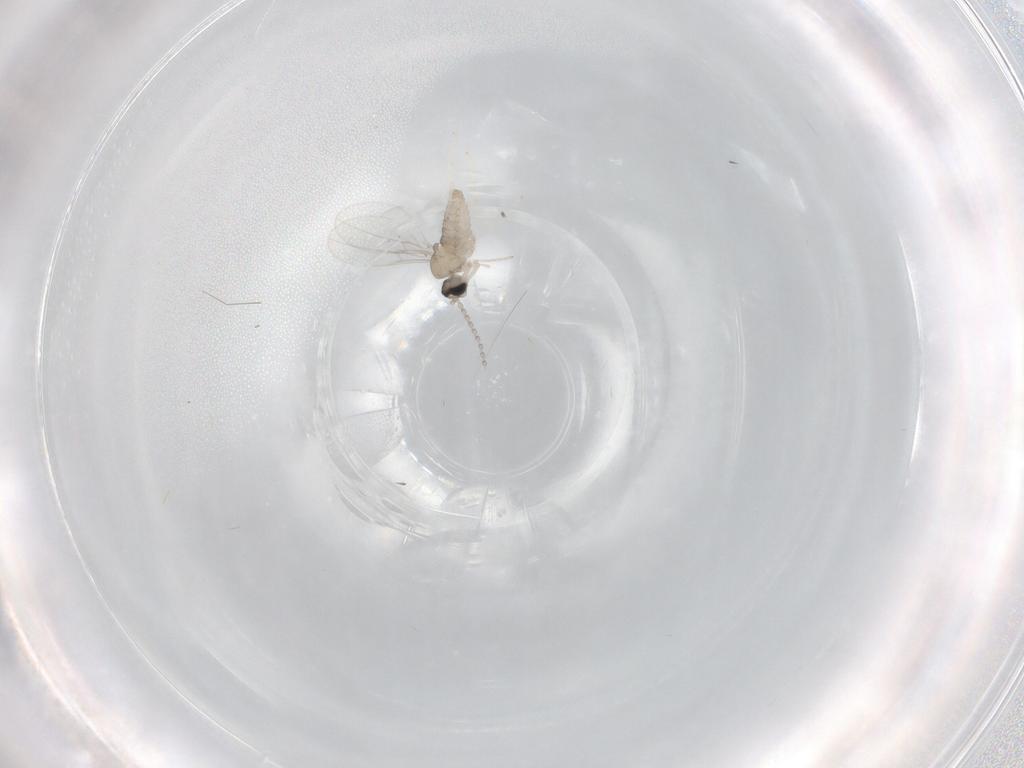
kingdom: Animalia
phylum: Arthropoda
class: Insecta
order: Diptera
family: Cecidomyiidae
